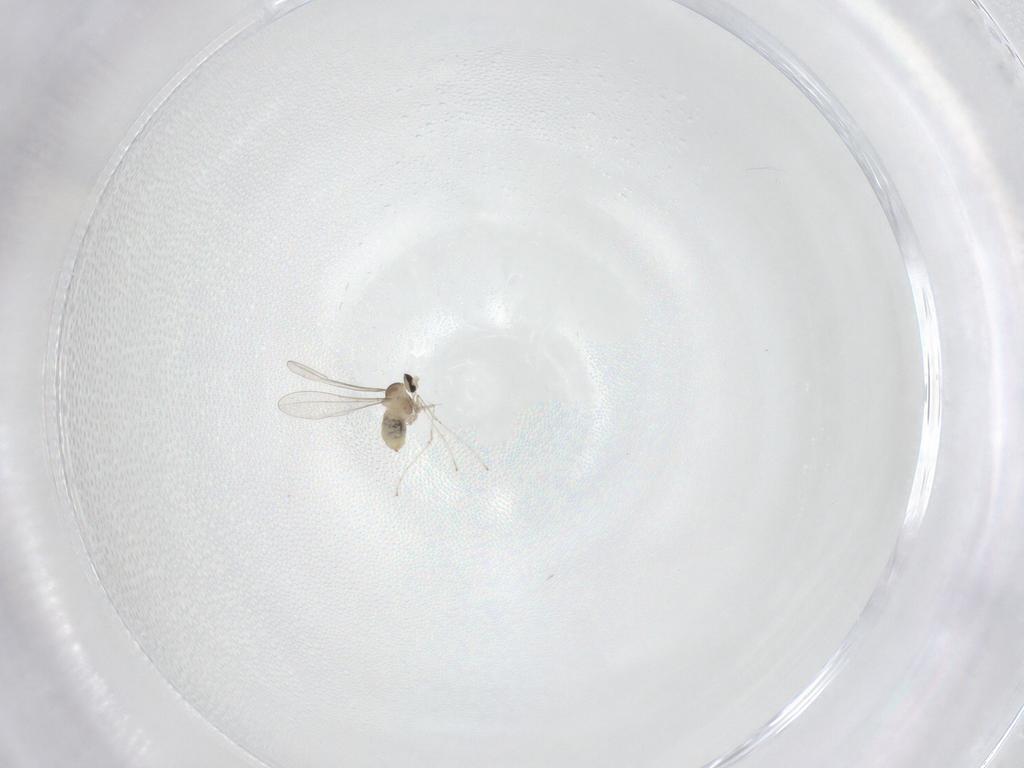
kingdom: Animalia
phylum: Arthropoda
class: Insecta
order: Diptera
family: Cecidomyiidae
